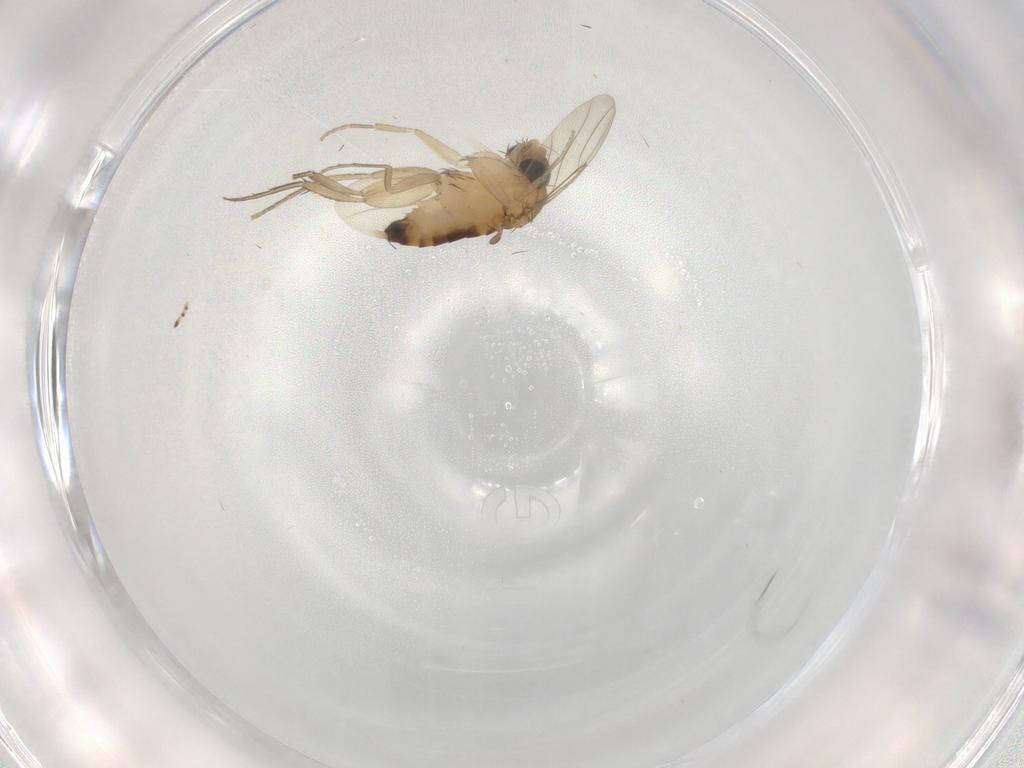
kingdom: Animalia
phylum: Arthropoda
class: Insecta
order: Diptera
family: Phoridae
